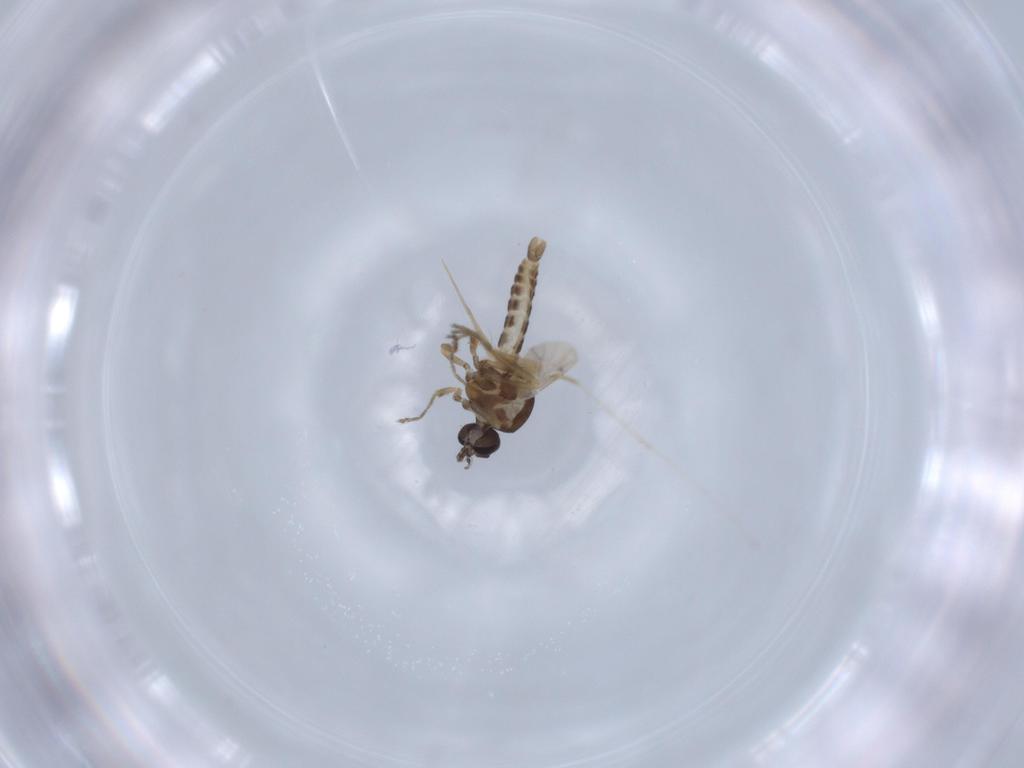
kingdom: Animalia
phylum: Arthropoda
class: Insecta
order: Diptera
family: Ceratopogonidae
